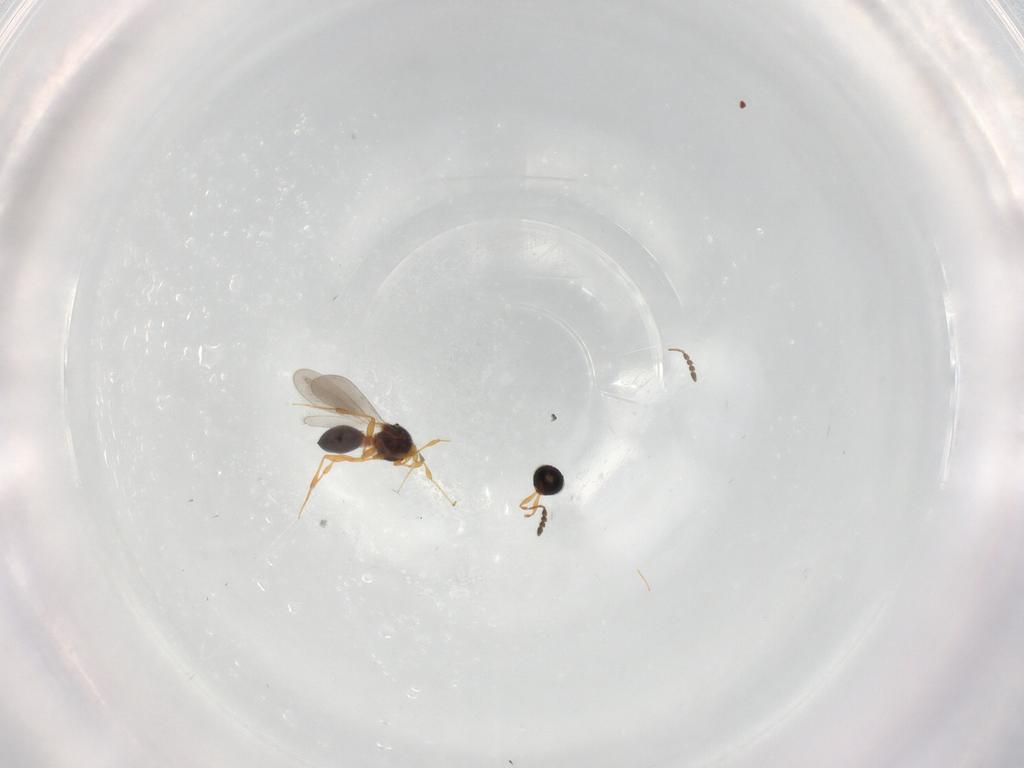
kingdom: Animalia
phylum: Arthropoda
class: Insecta
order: Hymenoptera
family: Platygastridae
